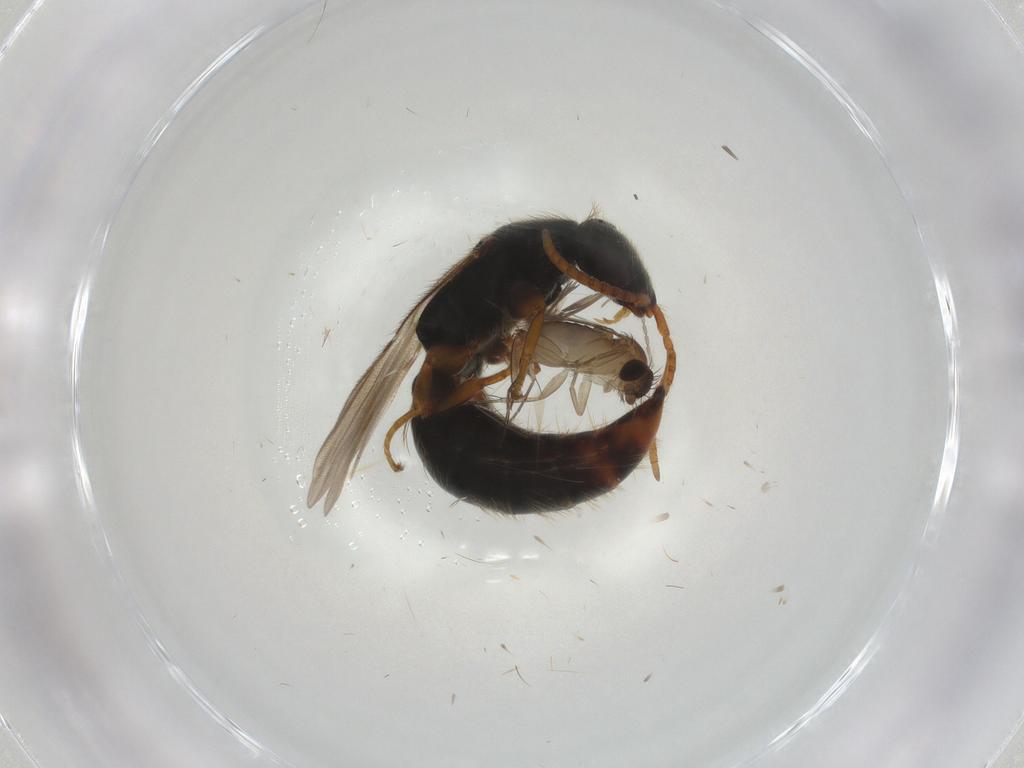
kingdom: Animalia
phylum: Arthropoda
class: Insecta
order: Diptera
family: Phoridae
